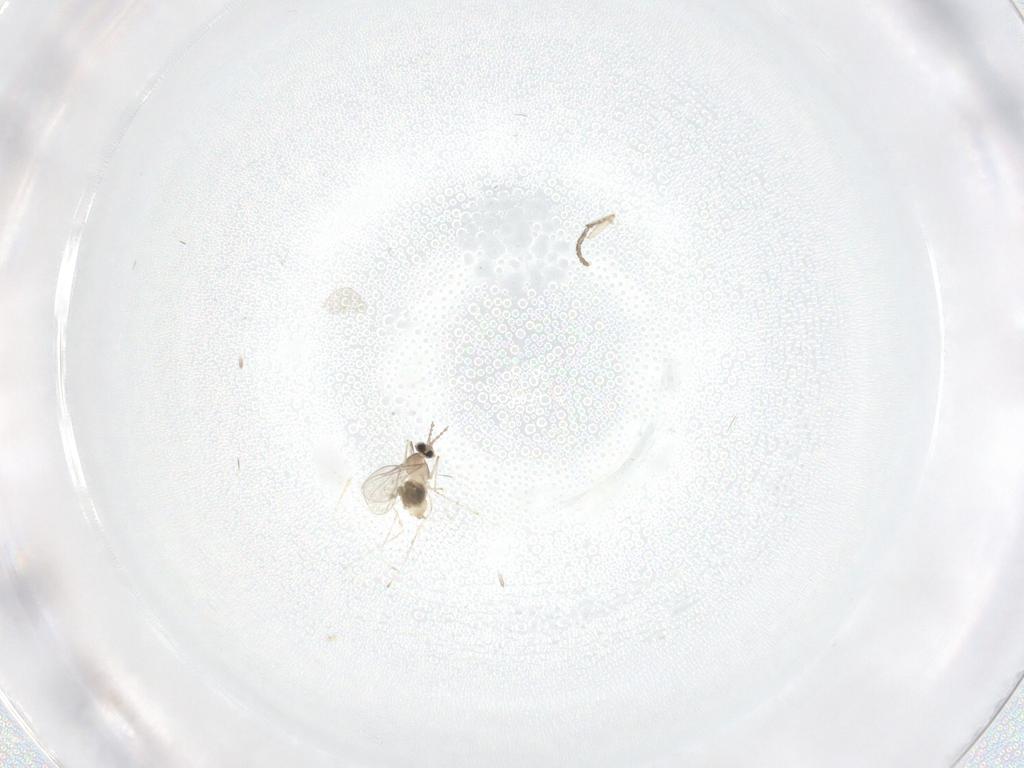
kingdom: Animalia
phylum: Arthropoda
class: Insecta
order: Diptera
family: Cecidomyiidae
